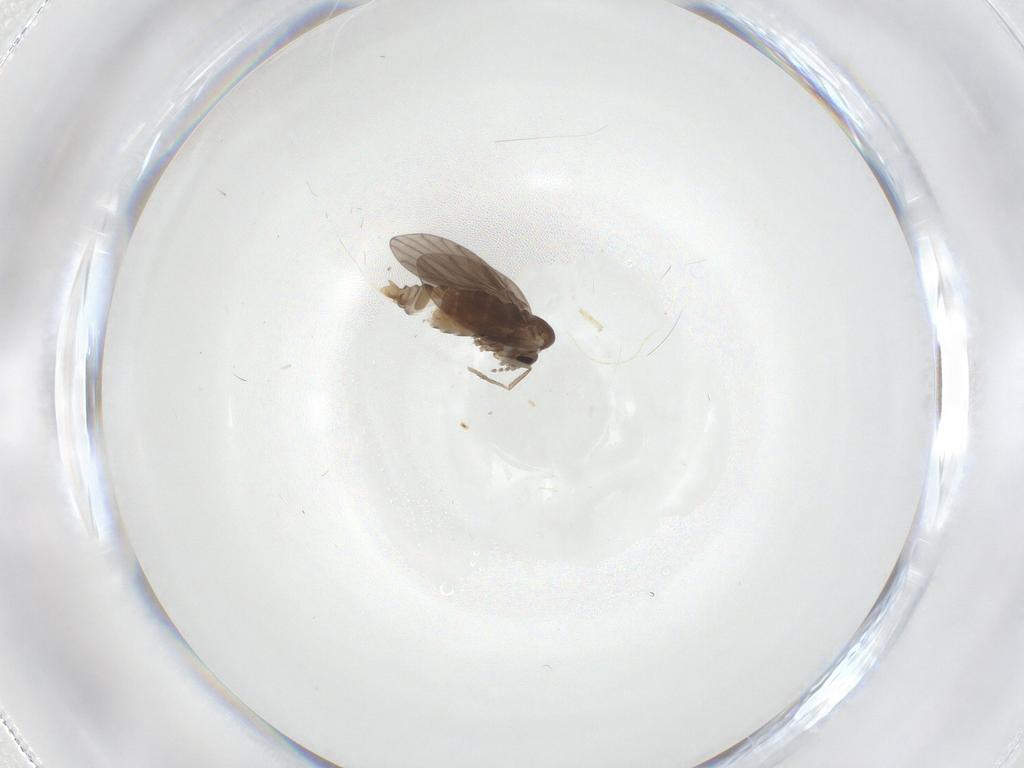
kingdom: Animalia
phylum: Arthropoda
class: Insecta
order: Diptera
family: Psychodidae
